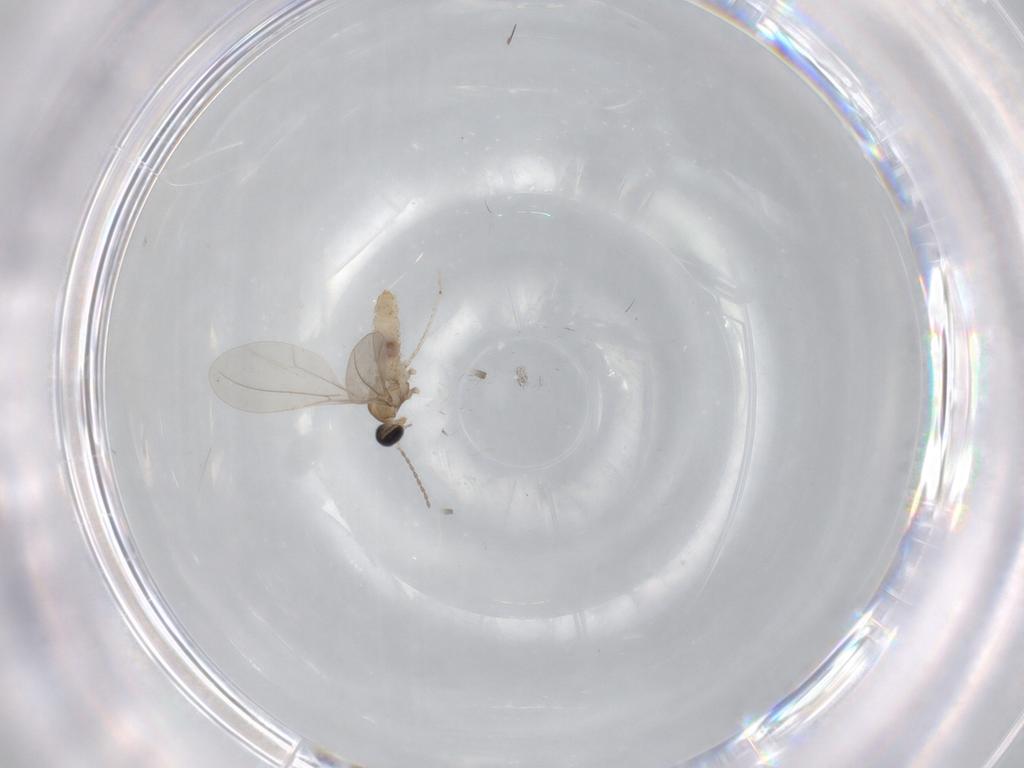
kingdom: Animalia
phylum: Arthropoda
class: Insecta
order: Diptera
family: Cecidomyiidae
